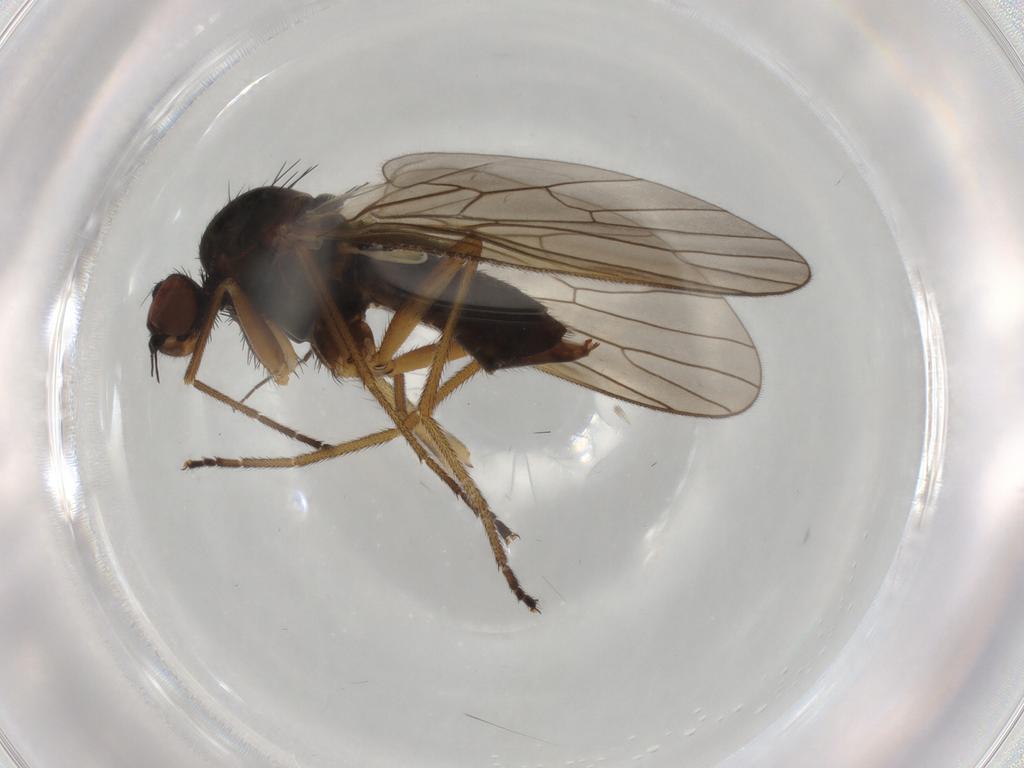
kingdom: Animalia
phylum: Arthropoda
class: Insecta
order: Diptera
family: Brachystomatidae
